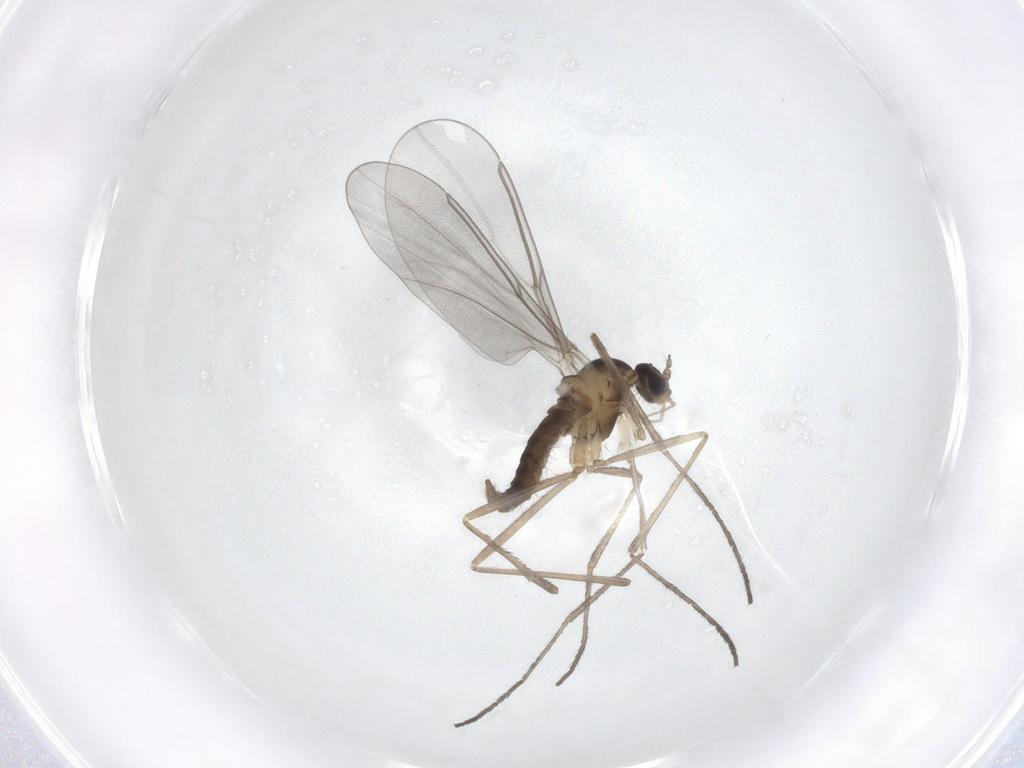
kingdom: Animalia
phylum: Arthropoda
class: Insecta
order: Diptera
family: Cecidomyiidae
